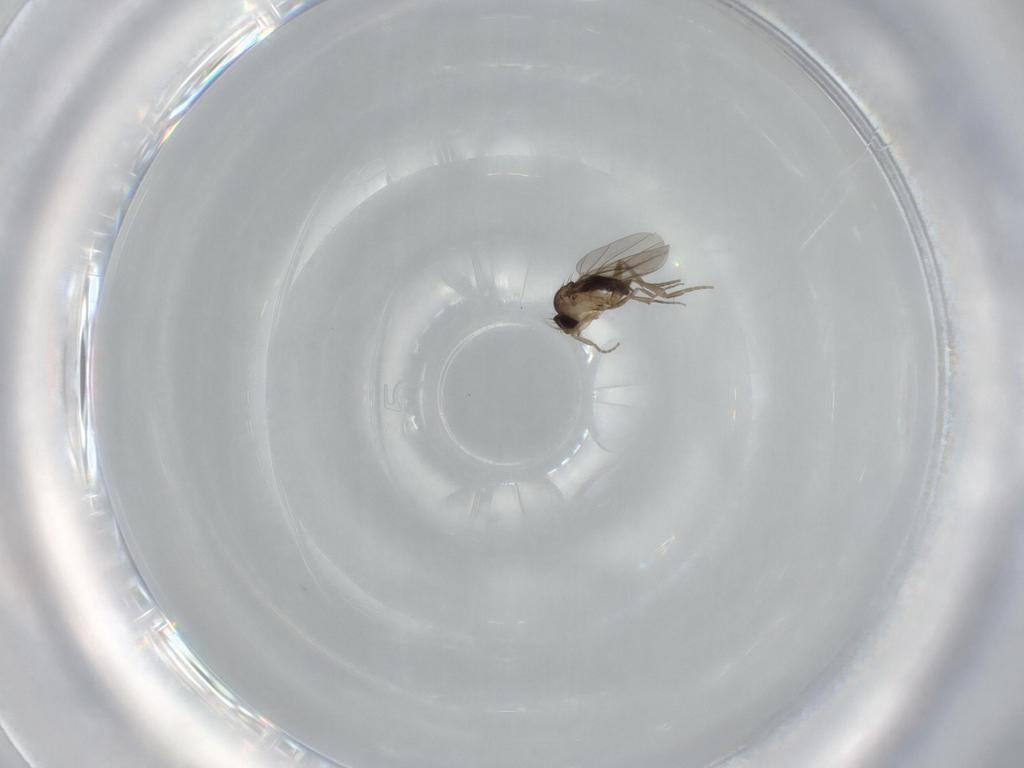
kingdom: Animalia
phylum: Arthropoda
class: Insecta
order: Diptera
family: Phoridae
